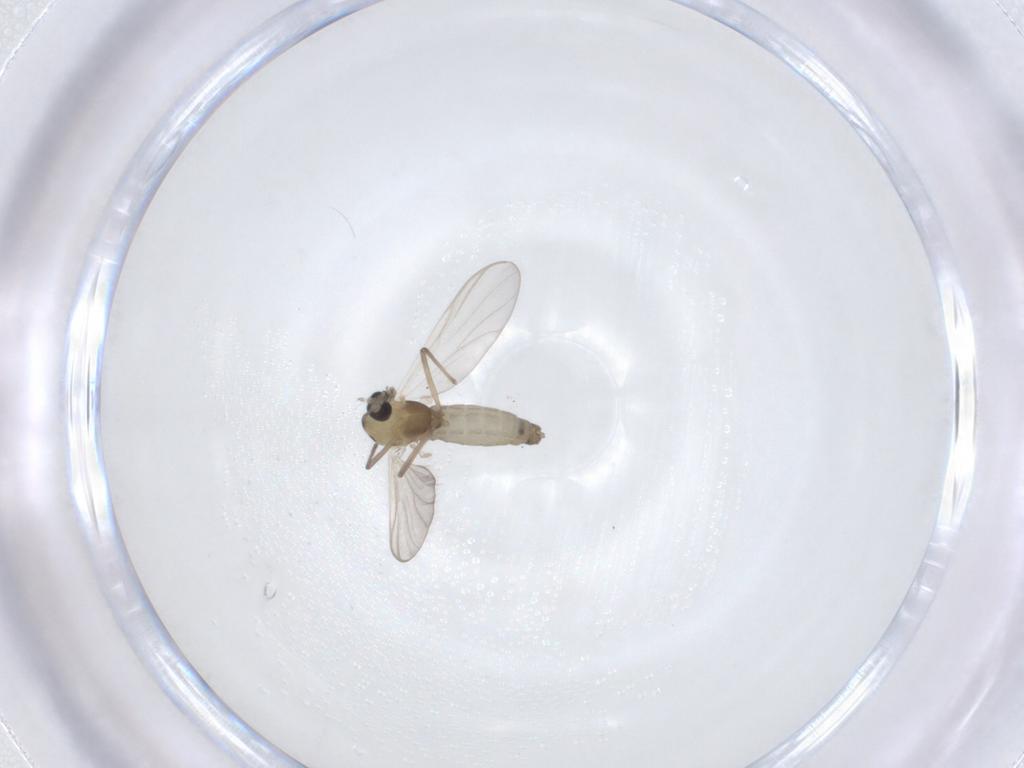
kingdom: Animalia
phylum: Arthropoda
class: Insecta
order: Diptera
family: Chironomidae
